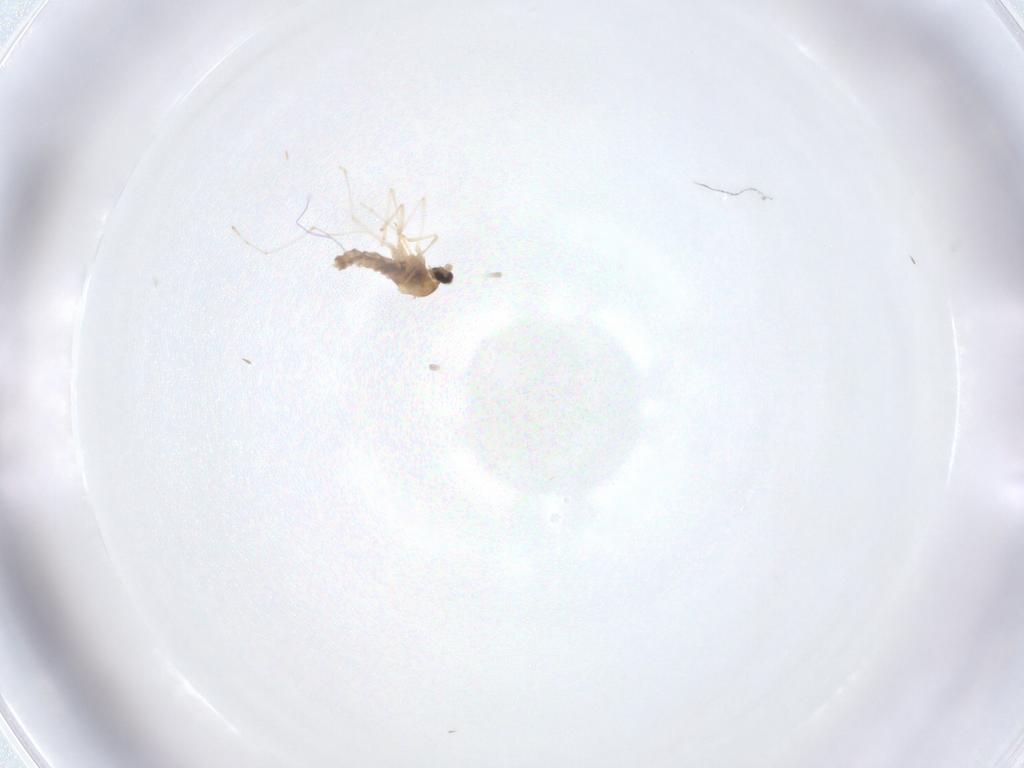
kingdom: Animalia
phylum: Arthropoda
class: Insecta
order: Diptera
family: Cecidomyiidae
